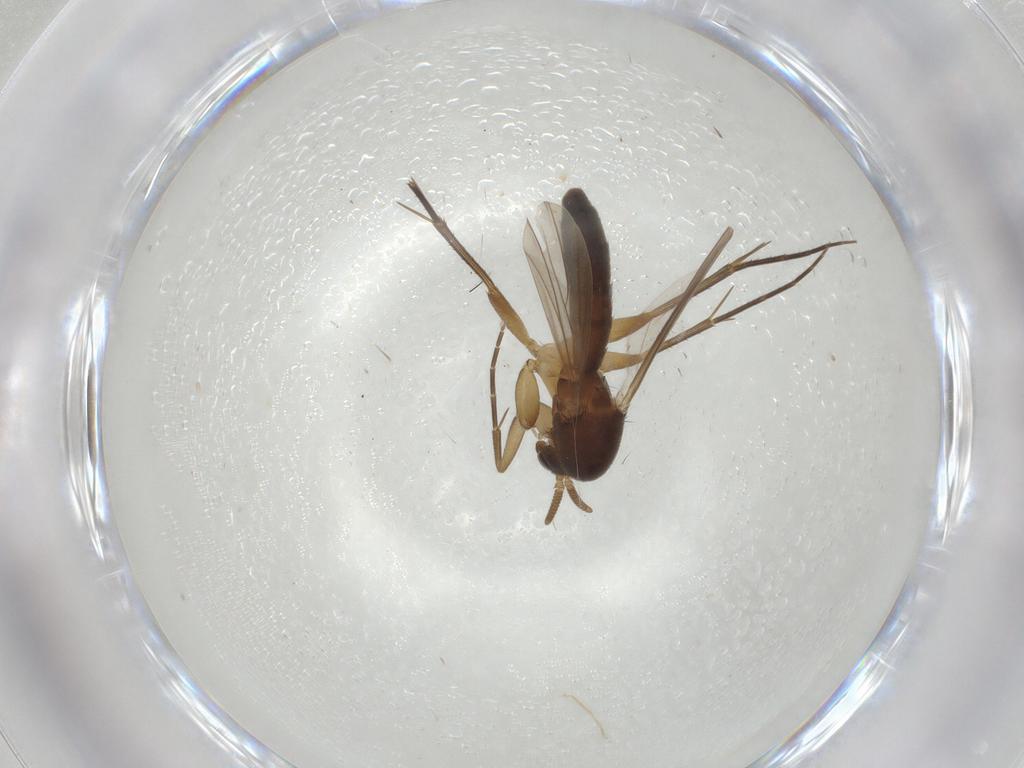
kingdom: Animalia
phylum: Arthropoda
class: Insecta
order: Diptera
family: Mycetophilidae
